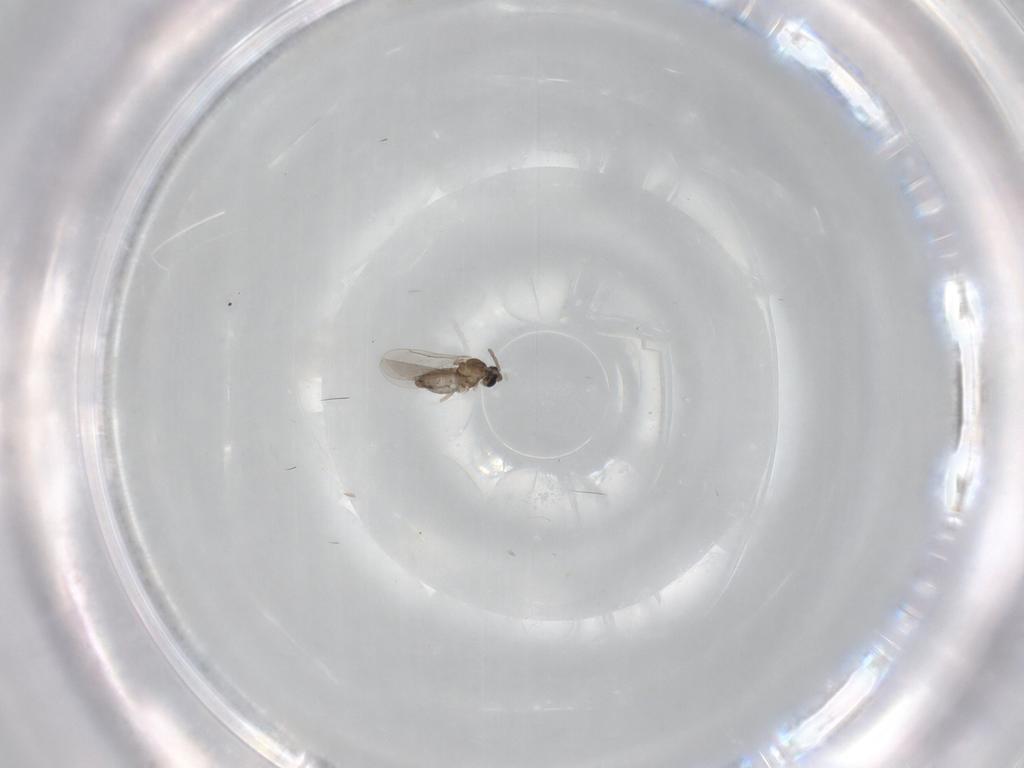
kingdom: Animalia
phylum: Arthropoda
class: Insecta
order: Diptera
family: Cecidomyiidae
